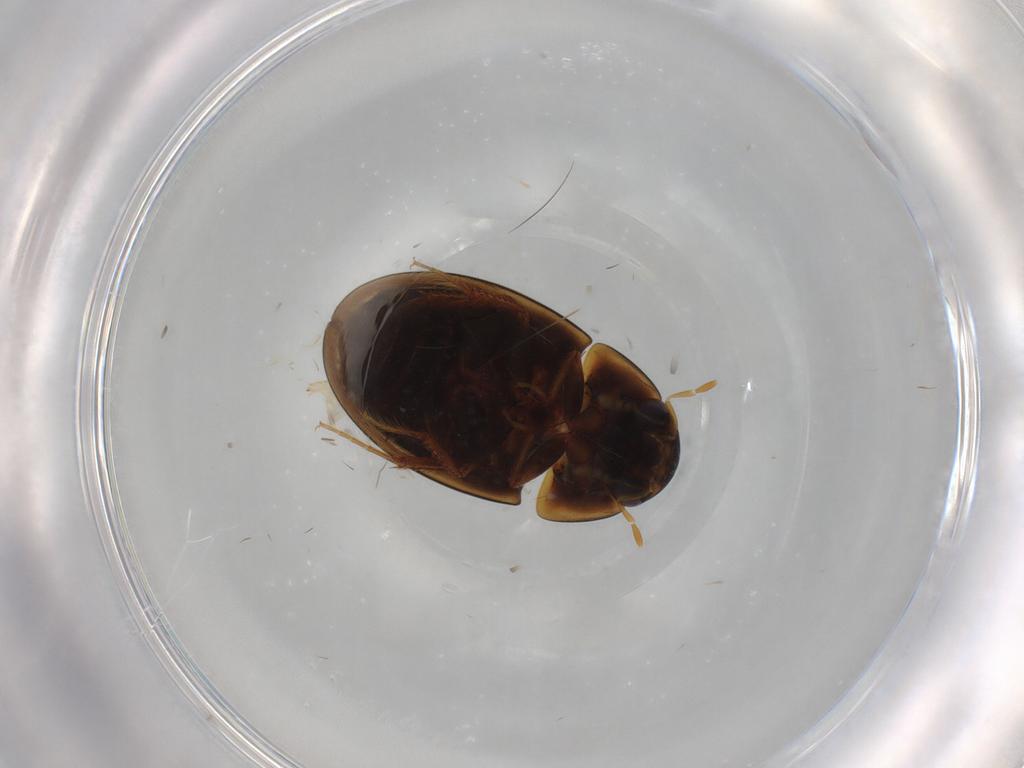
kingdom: Animalia
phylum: Arthropoda
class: Insecta
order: Coleoptera
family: Hydrophilidae
